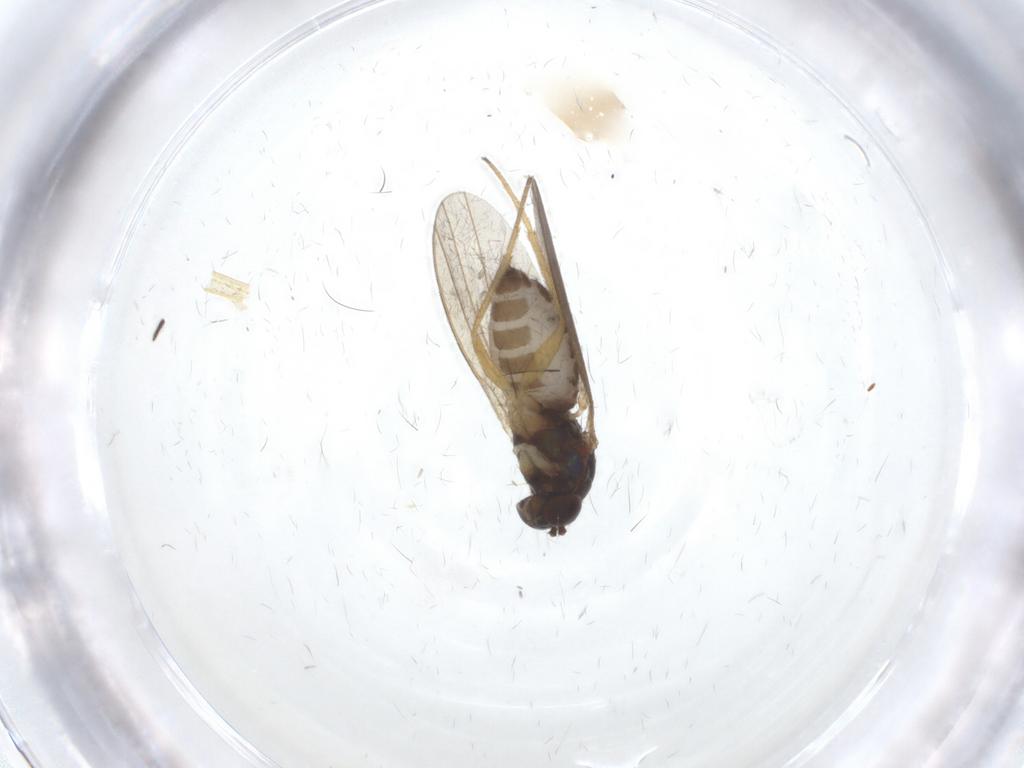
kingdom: Animalia
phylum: Arthropoda
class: Insecta
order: Diptera
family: Dolichopodidae
